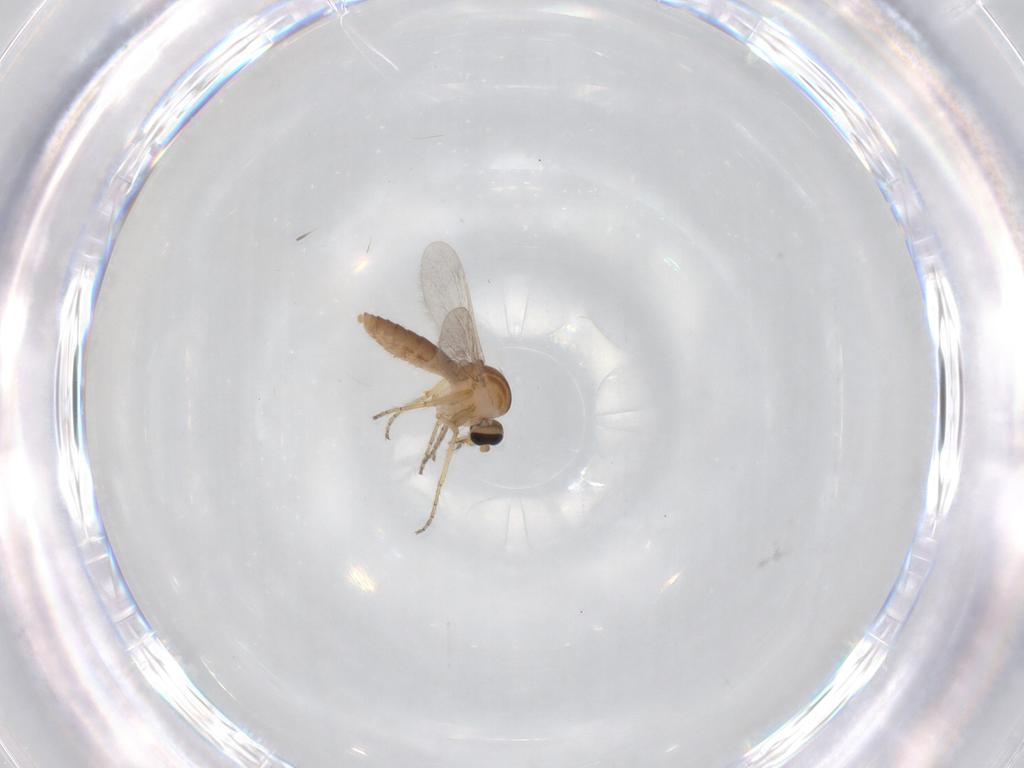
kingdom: Animalia
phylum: Arthropoda
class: Insecta
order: Diptera
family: Ceratopogonidae
